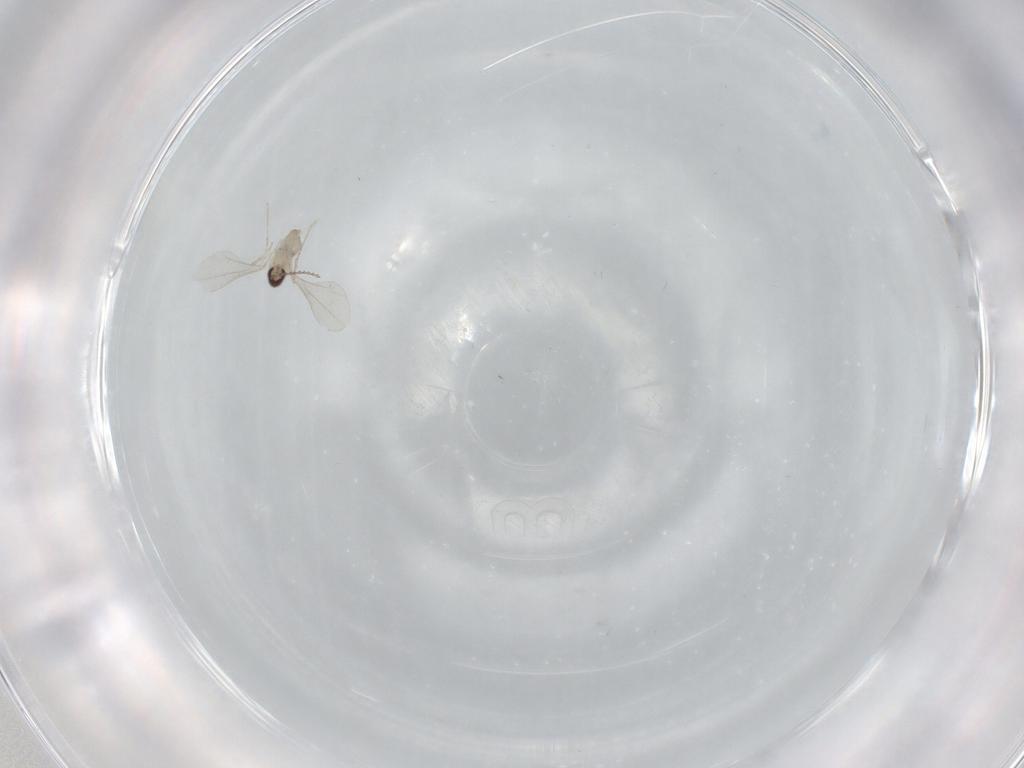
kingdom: Animalia
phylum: Arthropoda
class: Insecta
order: Diptera
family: Cecidomyiidae
